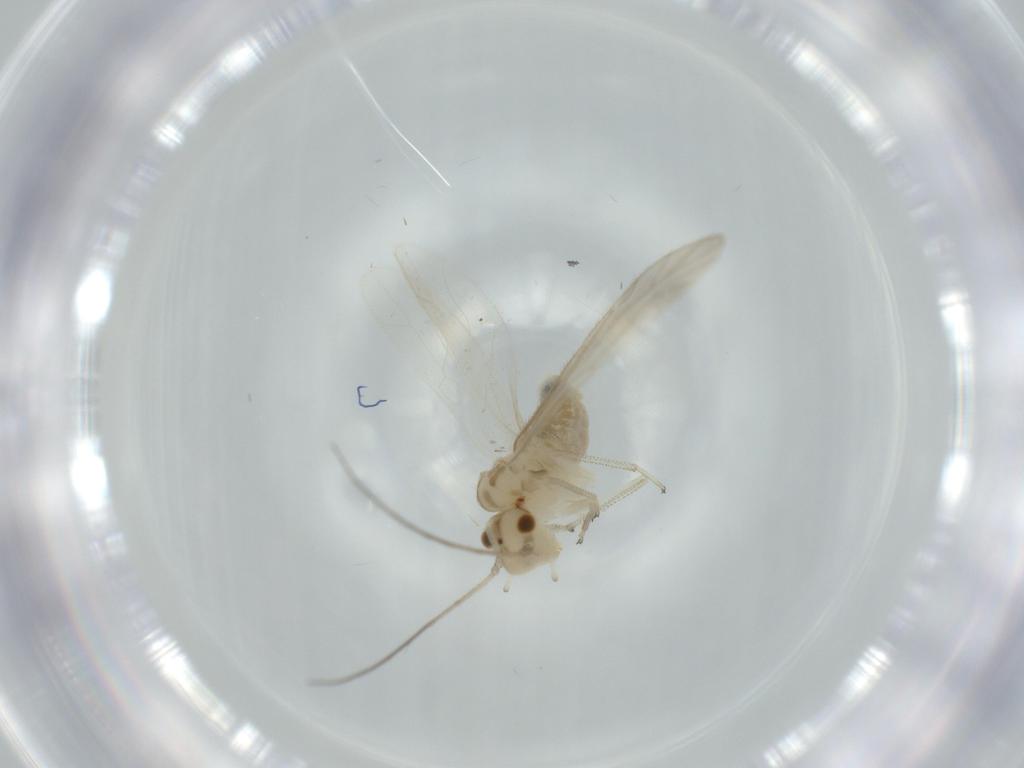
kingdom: Animalia
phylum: Arthropoda
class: Insecta
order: Psocodea
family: Caeciliusidae
